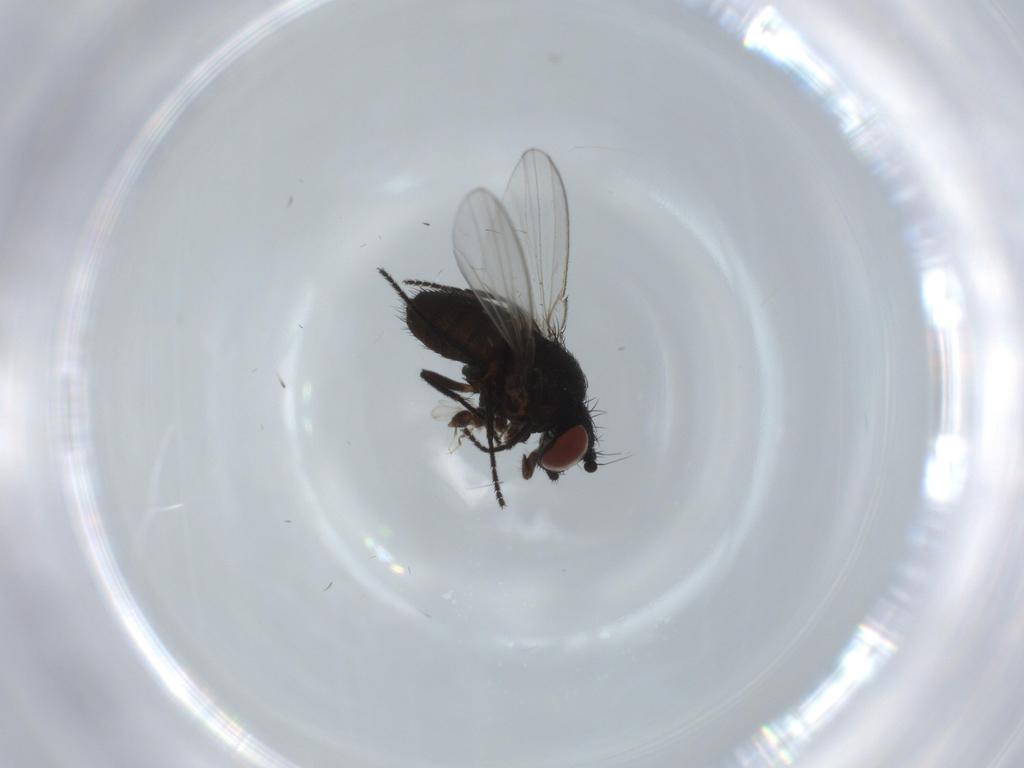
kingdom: Animalia
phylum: Arthropoda
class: Insecta
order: Diptera
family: Milichiidae
